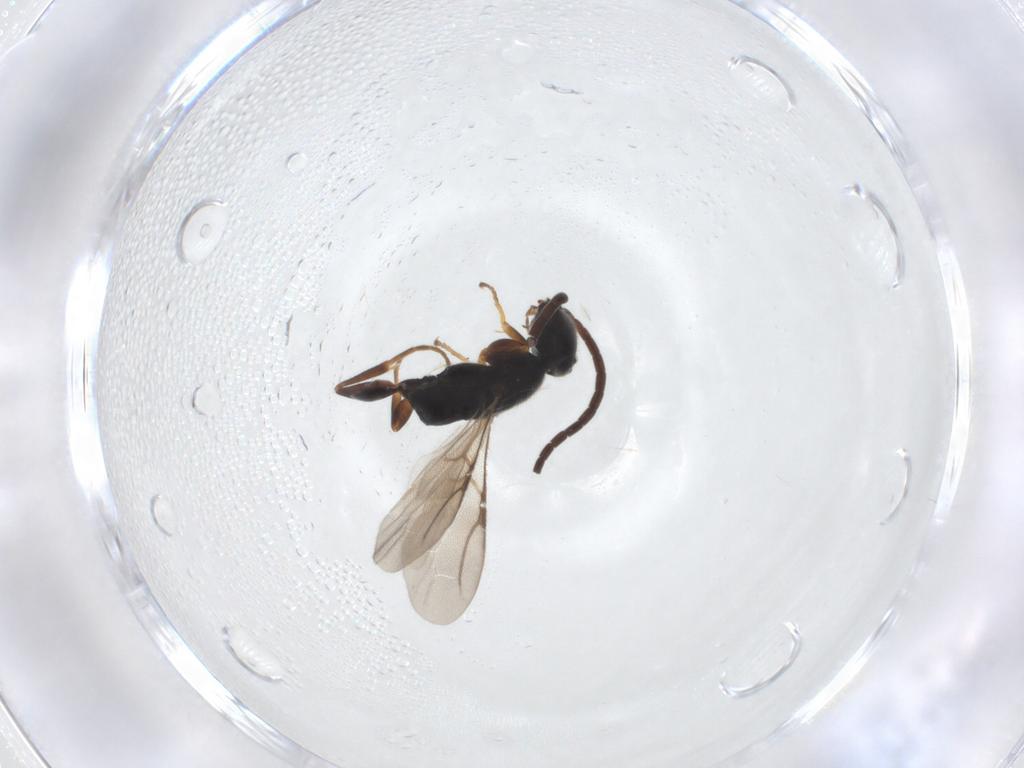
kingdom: Animalia
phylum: Arthropoda
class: Insecta
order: Hymenoptera
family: Bethylidae
